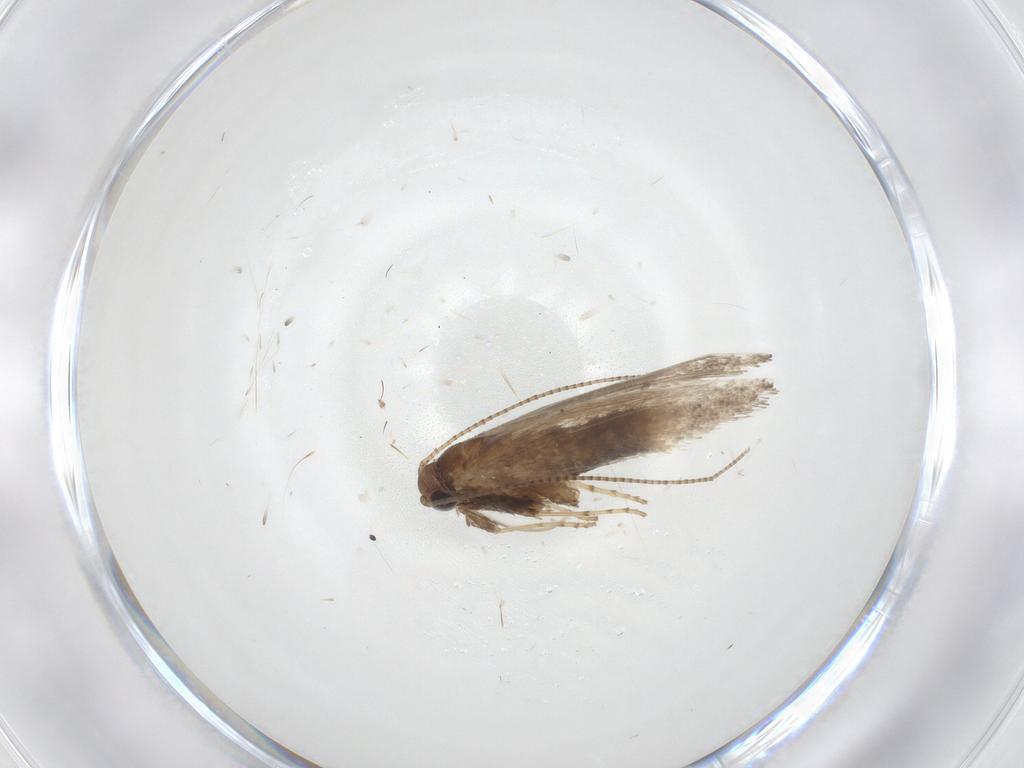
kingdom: Animalia
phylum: Arthropoda
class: Insecta
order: Lepidoptera
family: Gracillariidae
